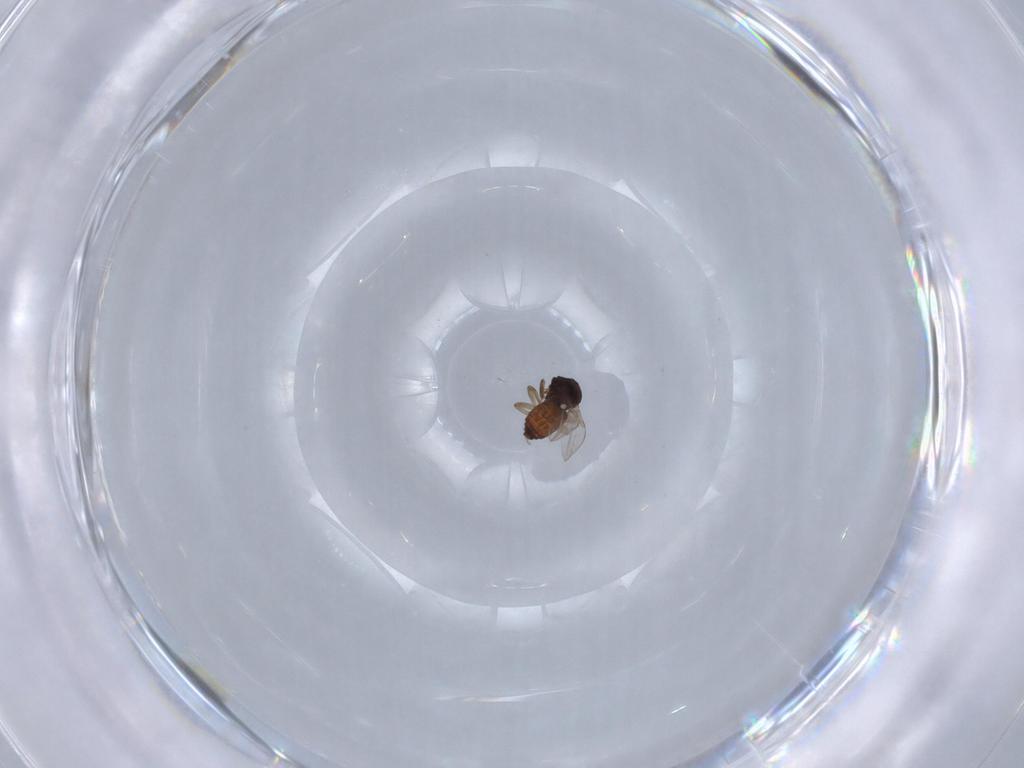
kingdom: Animalia
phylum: Arthropoda
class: Insecta
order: Diptera
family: Ceratopogonidae
